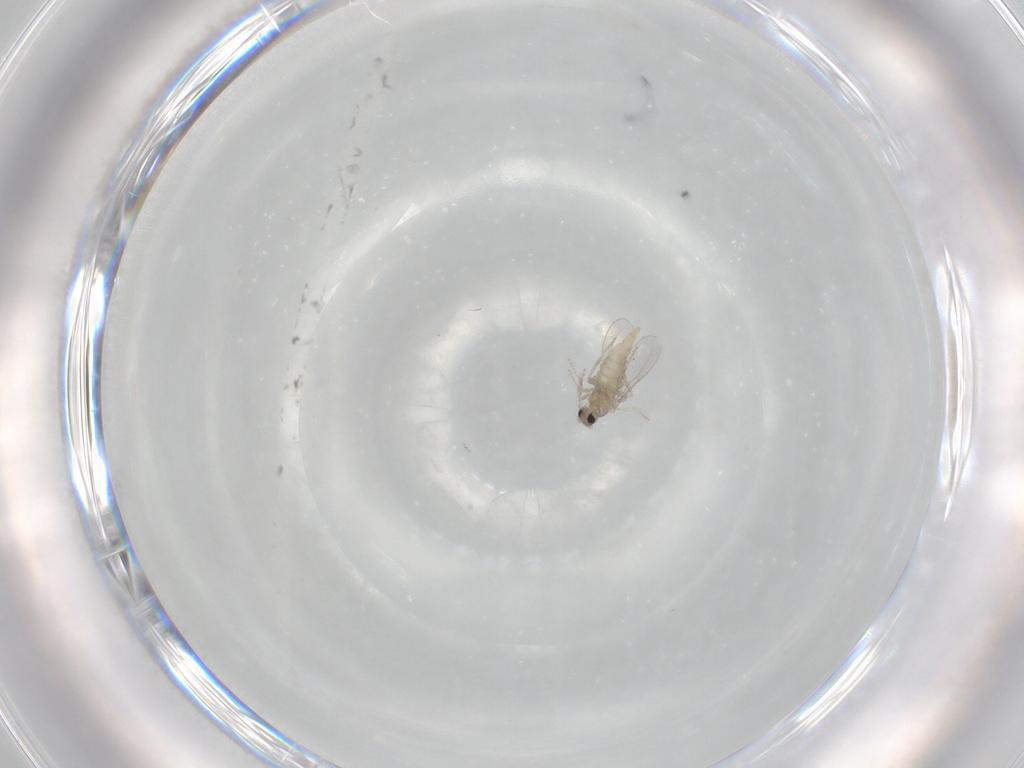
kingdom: Animalia
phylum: Arthropoda
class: Insecta
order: Diptera
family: Cecidomyiidae
